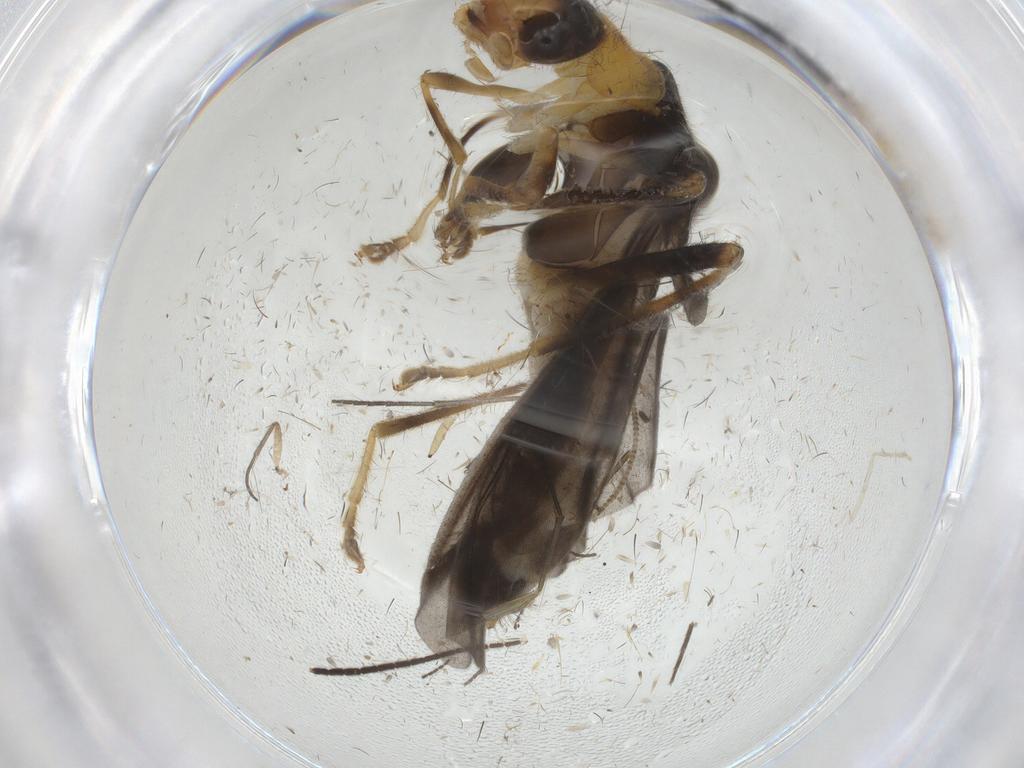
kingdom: Animalia
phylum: Arthropoda
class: Insecta
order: Coleoptera
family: Cantharidae
